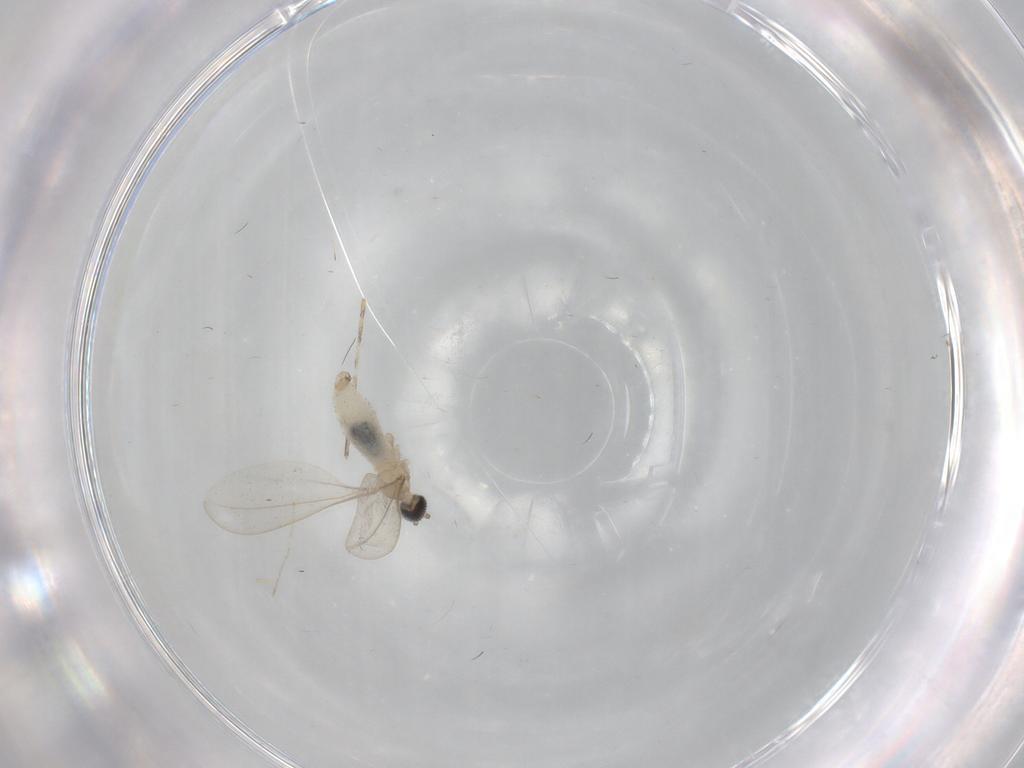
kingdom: Animalia
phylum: Arthropoda
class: Insecta
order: Diptera
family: Cecidomyiidae
